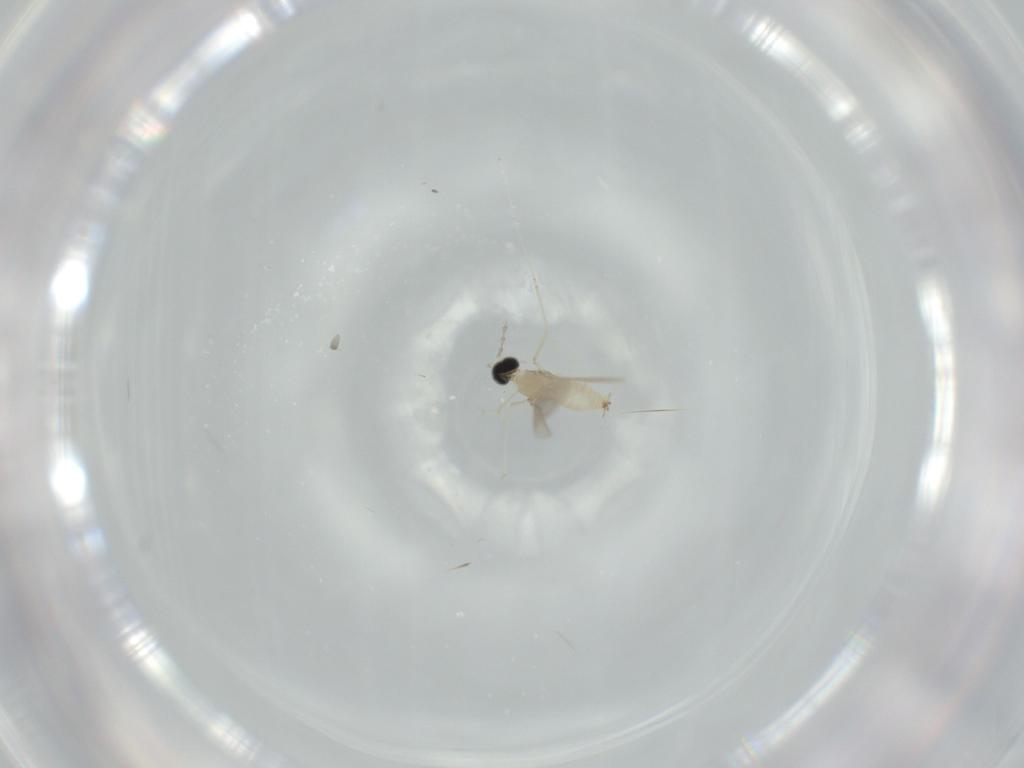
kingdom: Animalia
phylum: Arthropoda
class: Insecta
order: Diptera
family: Cecidomyiidae
